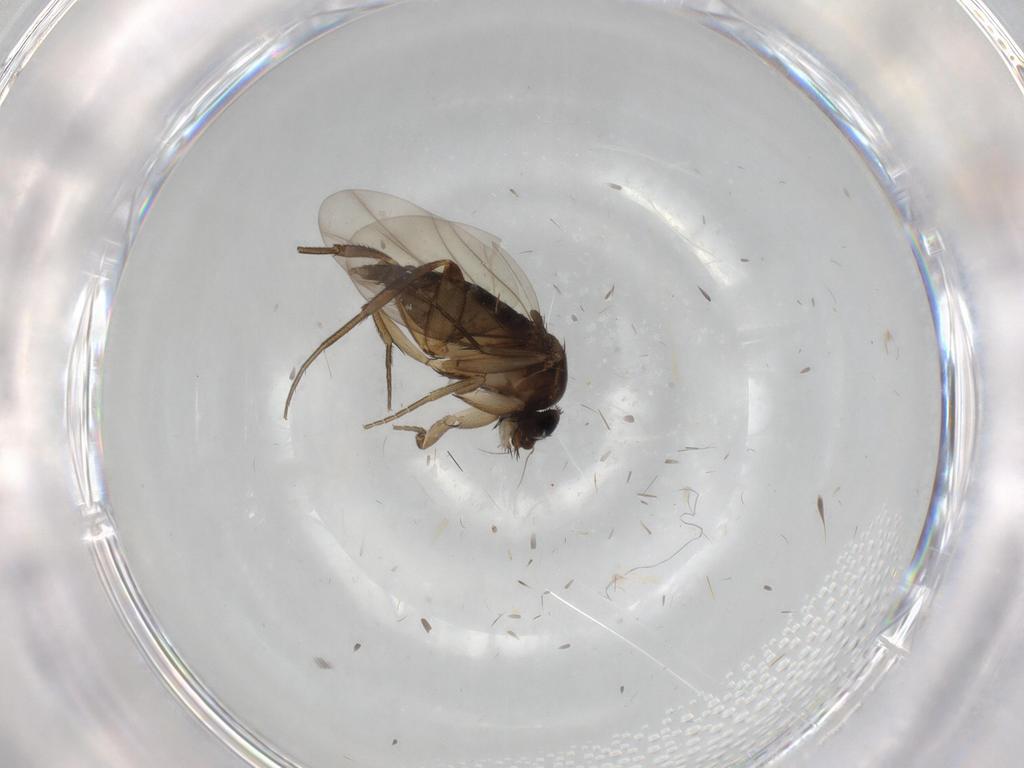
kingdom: Animalia
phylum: Arthropoda
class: Insecta
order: Diptera
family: Phoridae
